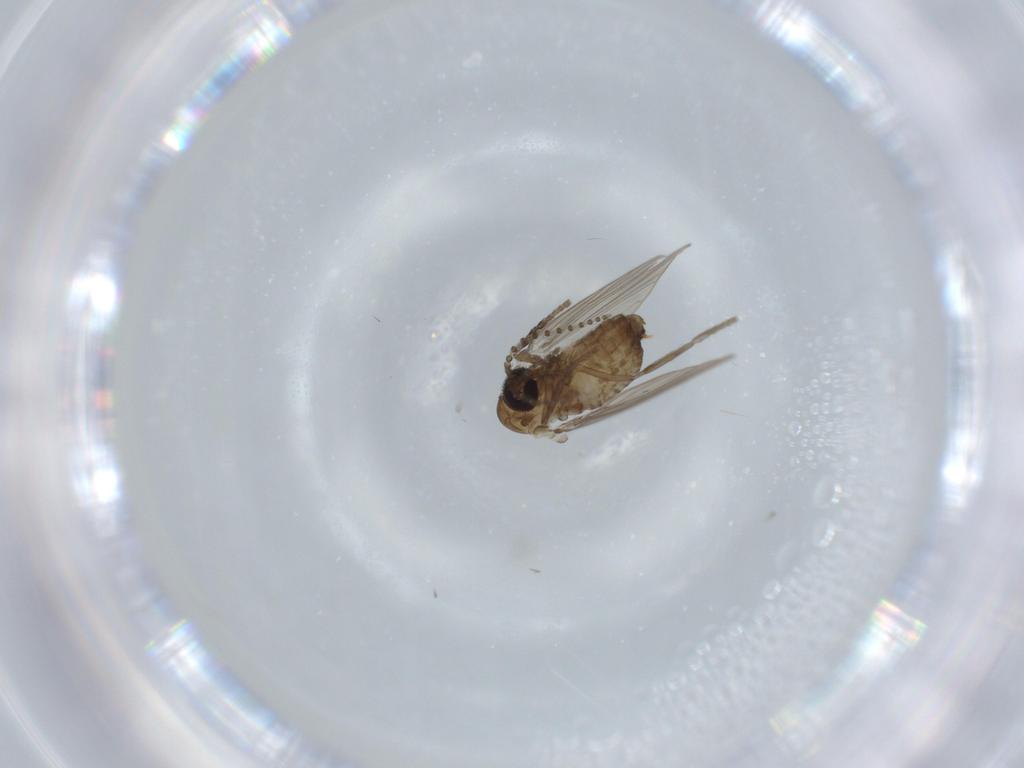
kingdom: Animalia
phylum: Arthropoda
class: Insecta
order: Diptera
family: Psychodidae
